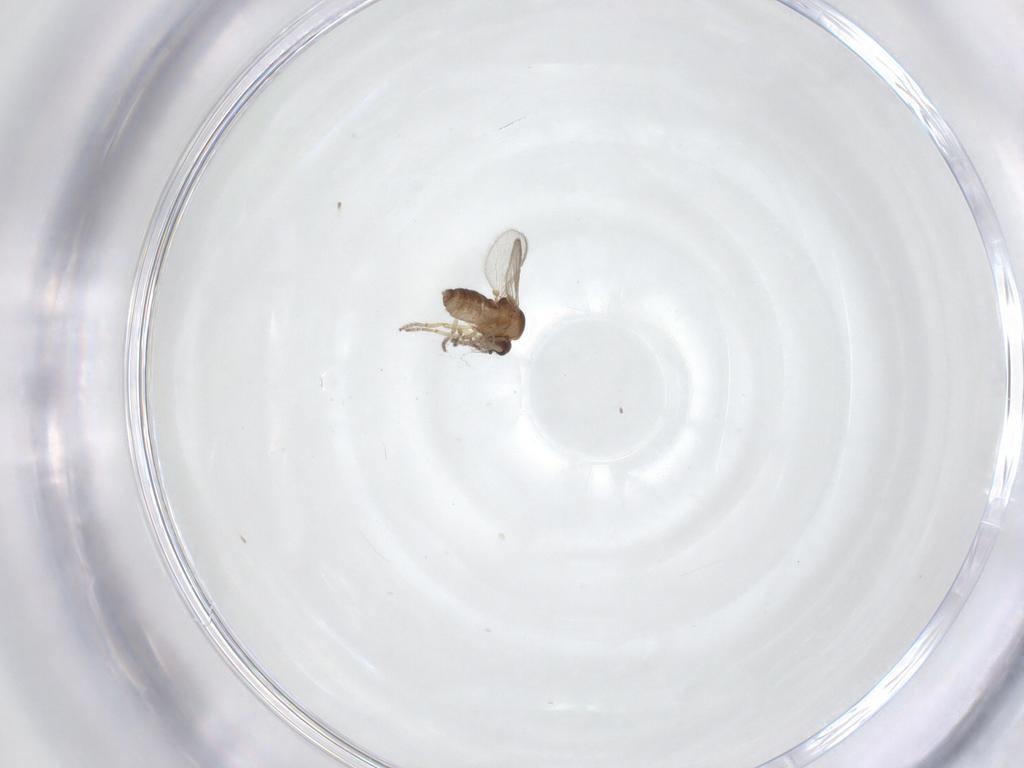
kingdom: Animalia
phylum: Arthropoda
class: Insecta
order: Diptera
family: Ceratopogonidae
